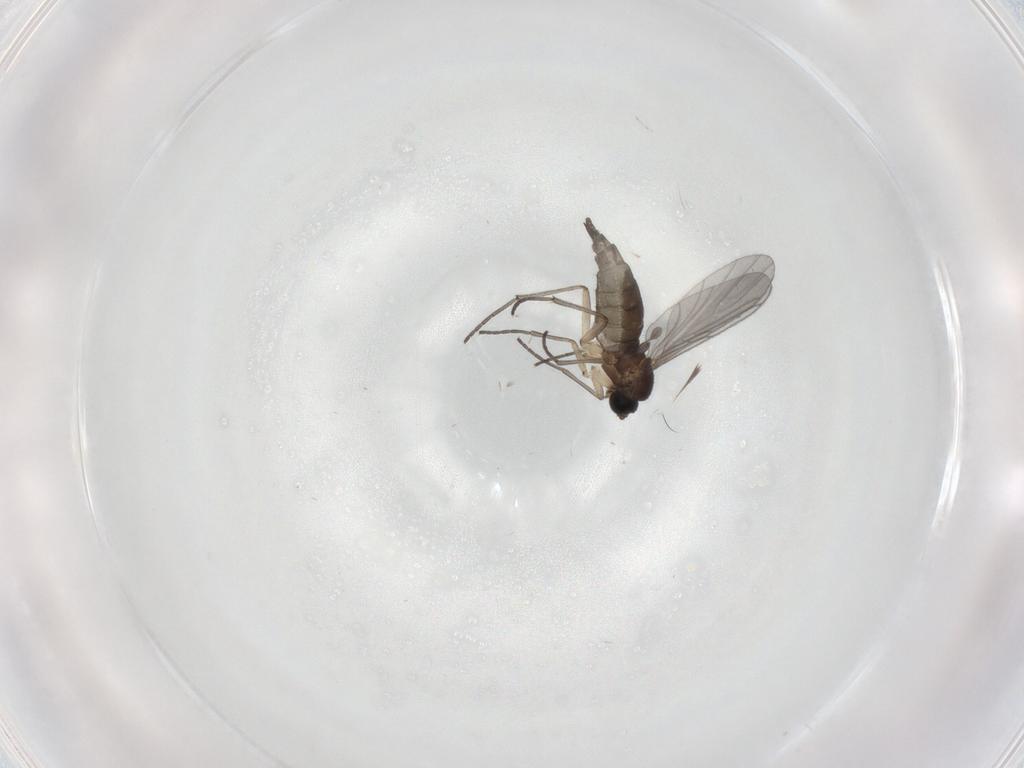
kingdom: Animalia
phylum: Arthropoda
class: Insecta
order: Diptera
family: Sciaridae
